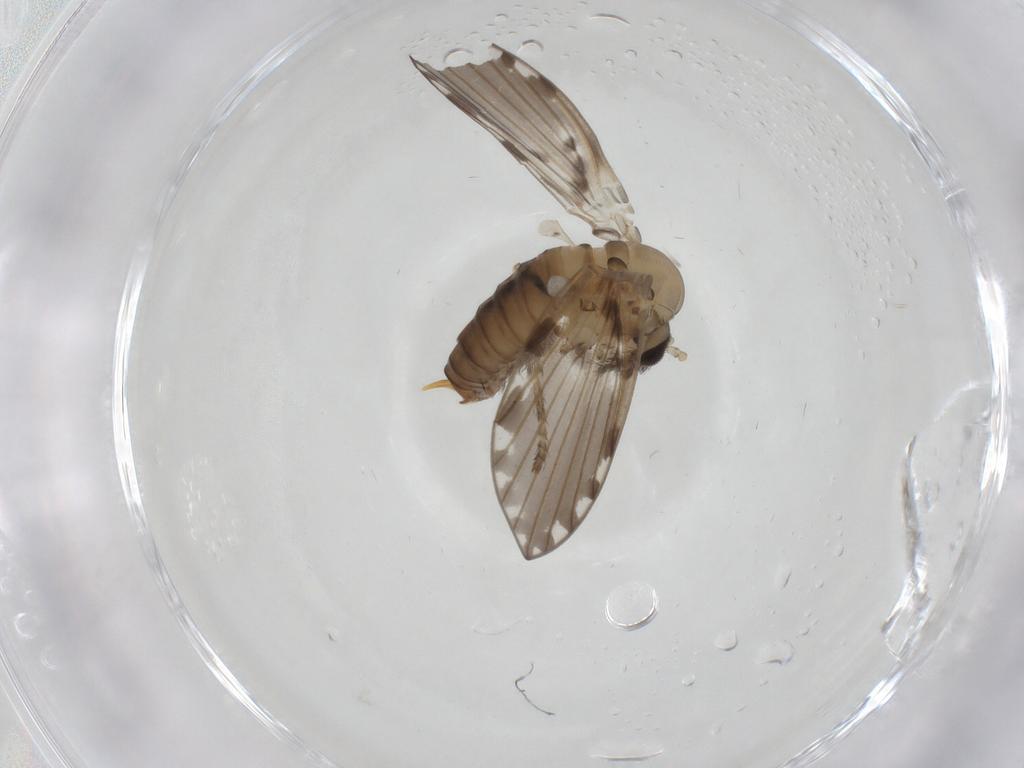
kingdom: Animalia
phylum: Arthropoda
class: Insecta
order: Diptera
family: Psychodidae
